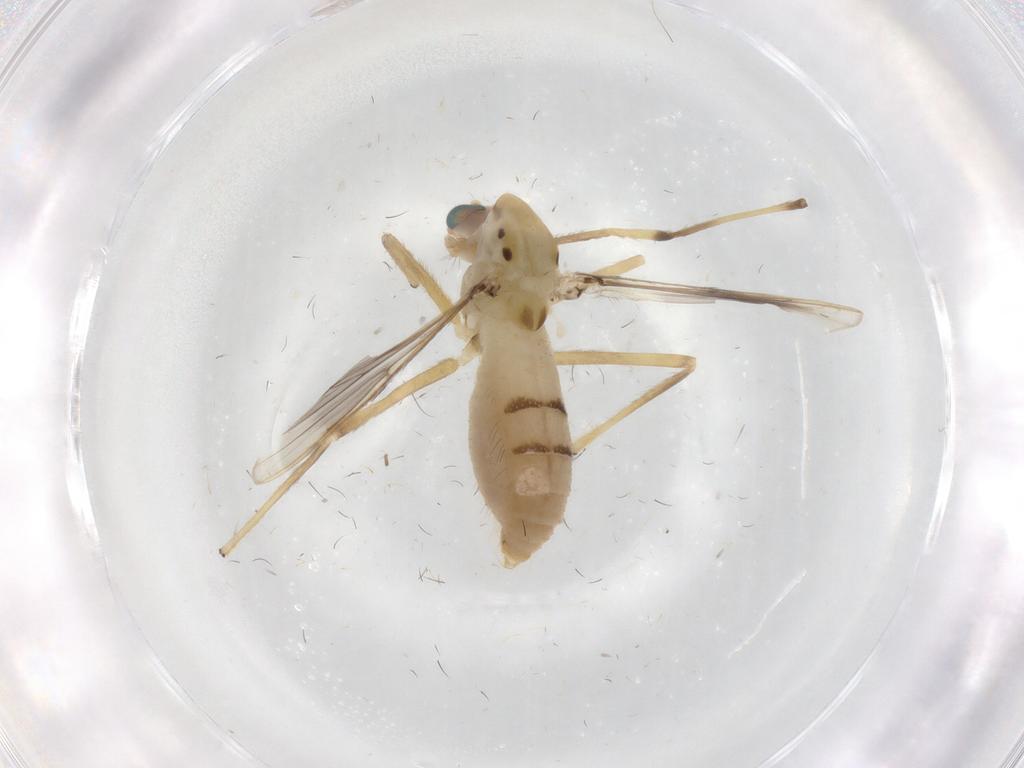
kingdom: Animalia
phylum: Arthropoda
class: Insecta
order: Diptera
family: Chironomidae
